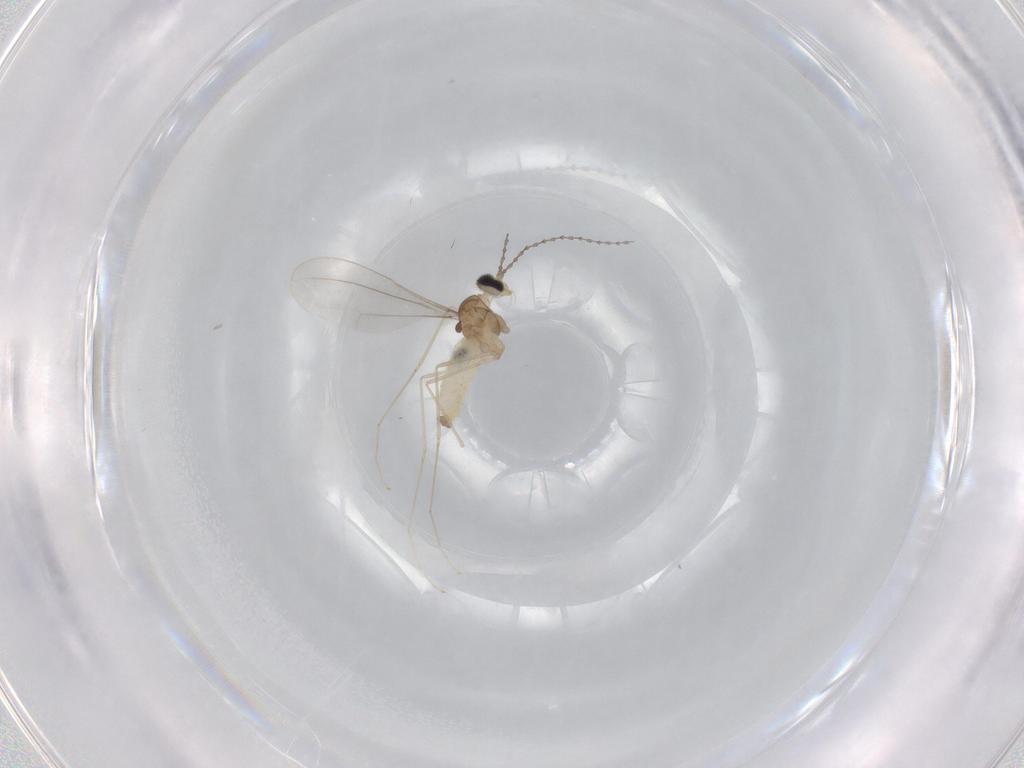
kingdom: Animalia
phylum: Arthropoda
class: Insecta
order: Diptera
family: Cecidomyiidae
